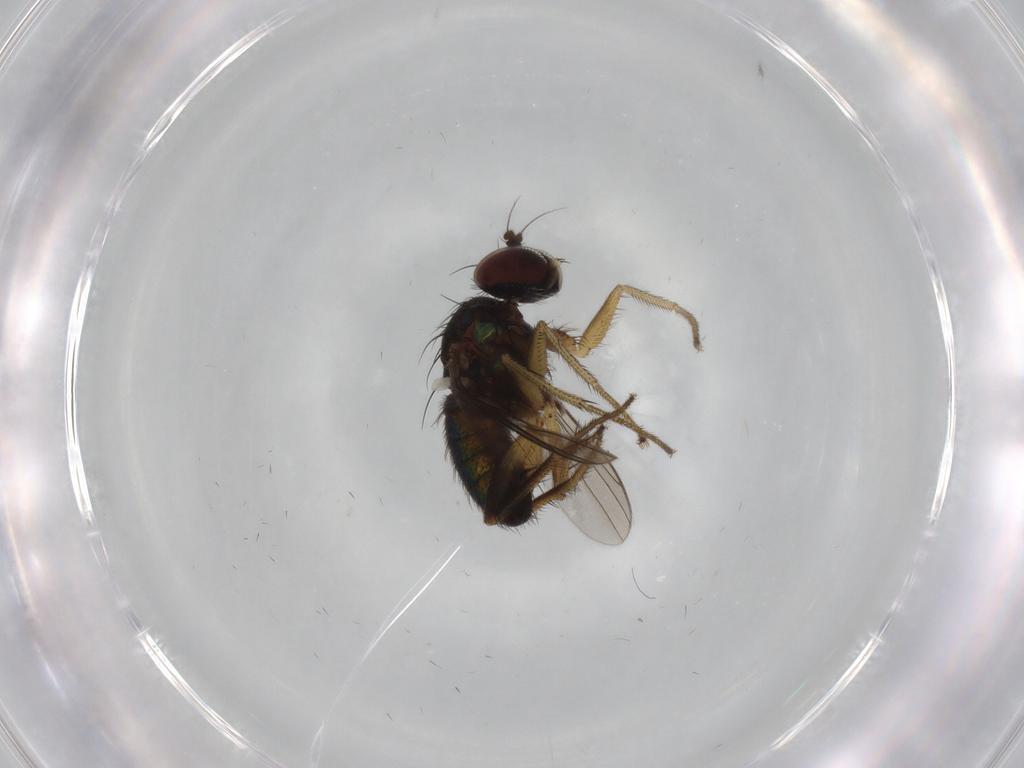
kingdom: Animalia
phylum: Arthropoda
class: Insecta
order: Diptera
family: Dolichopodidae
